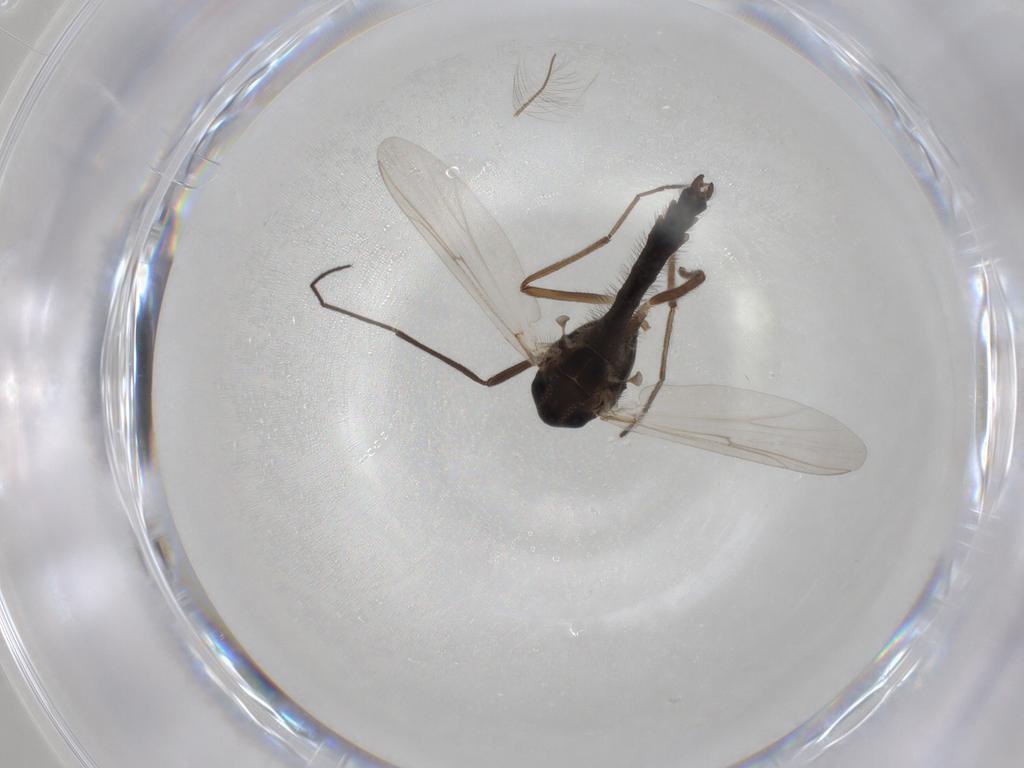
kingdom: Animalia
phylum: Arthropoda
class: Insecta
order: Diptera
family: Chironomidae
